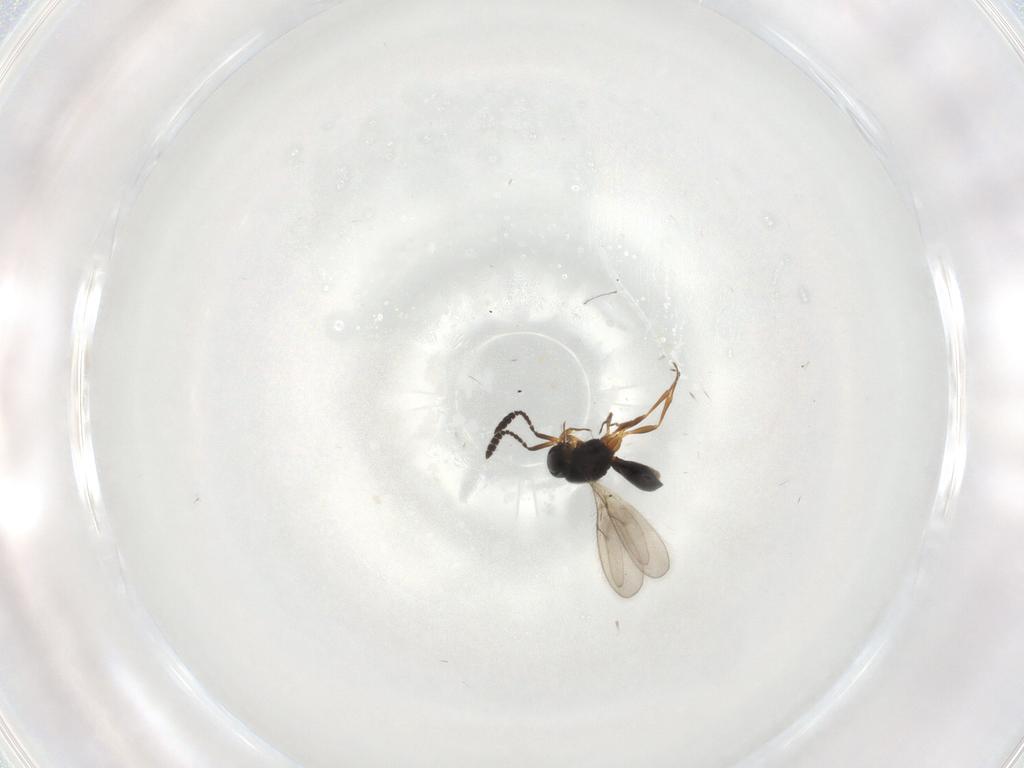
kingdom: Animalia
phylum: Arthropoda
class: Insecta
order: Hymenoptera
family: Scelionidae
